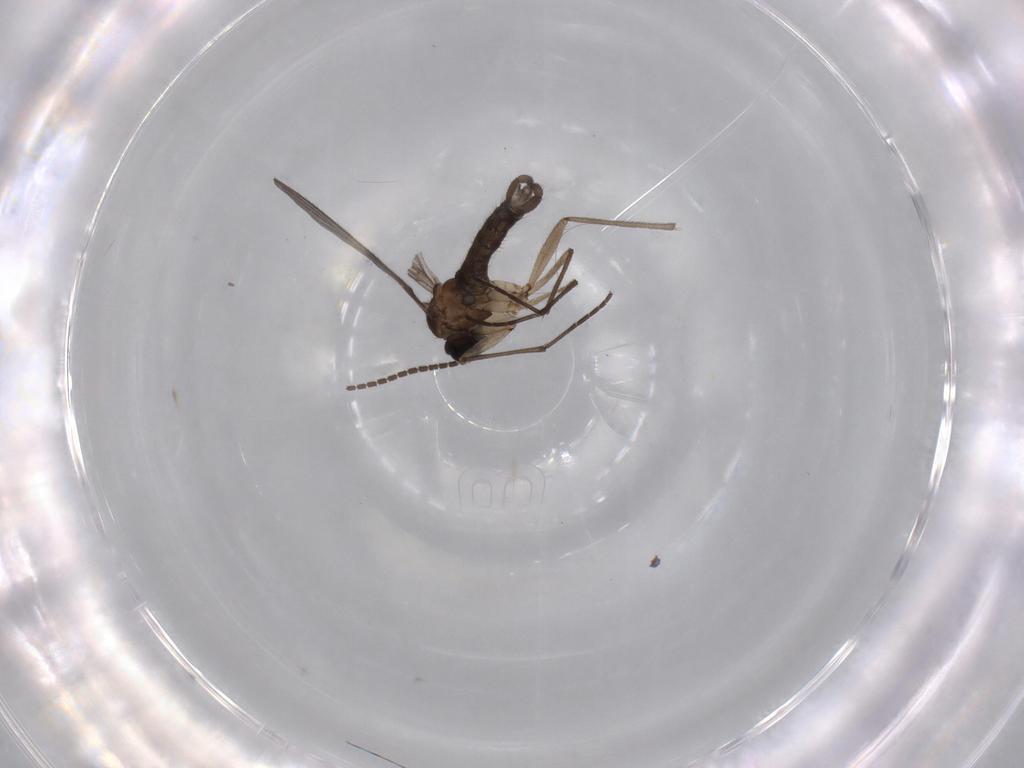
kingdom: Animalia
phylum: Arthropoda
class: Insecta
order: Diptera
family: Sciaridae
